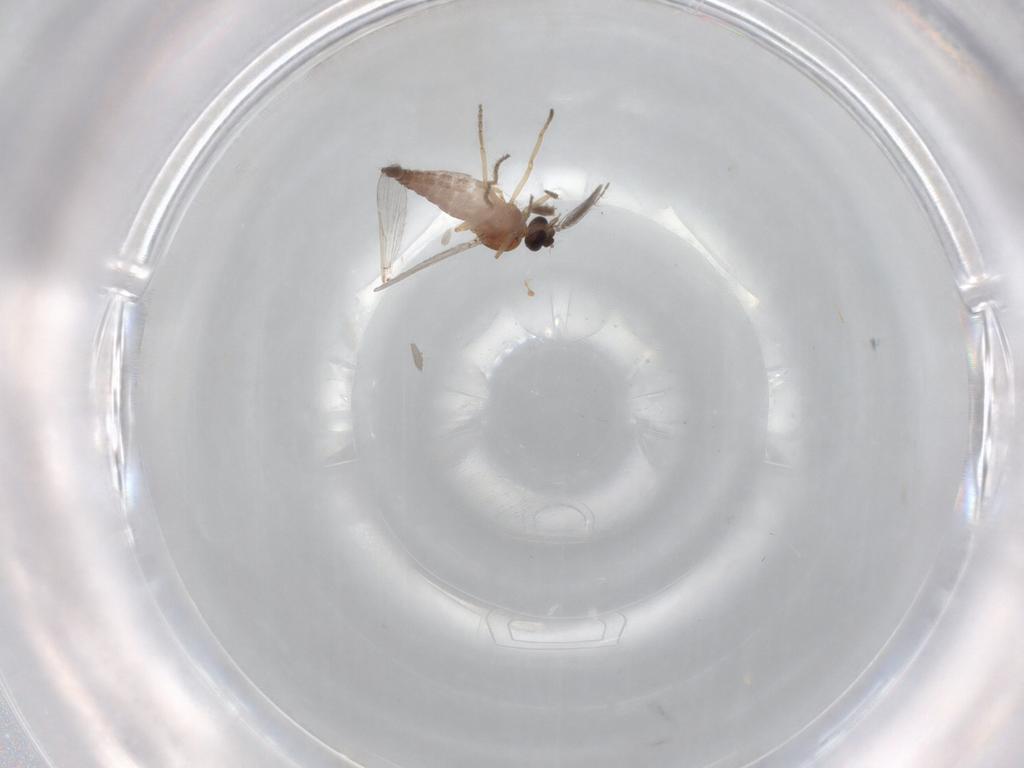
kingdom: Animalia
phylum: Arthropoda
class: Insecta
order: Diptera
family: Ceratopogonidae
